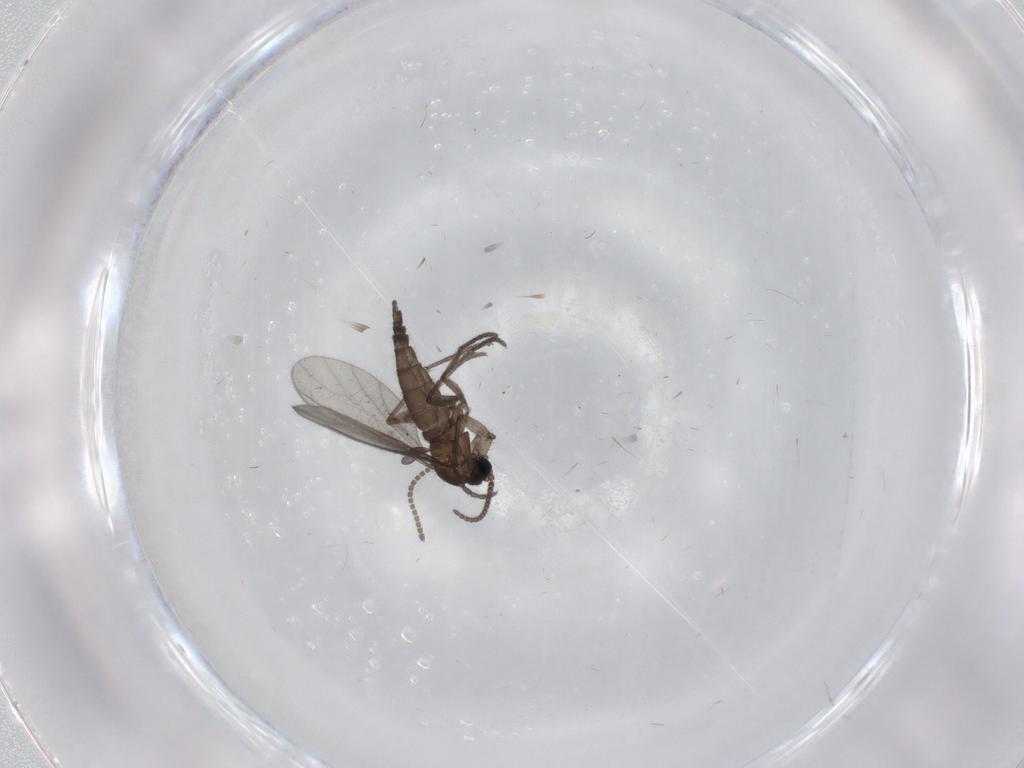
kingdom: Animalia
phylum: Arthropoda
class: Insecta
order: Diptera
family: Sciaridae
